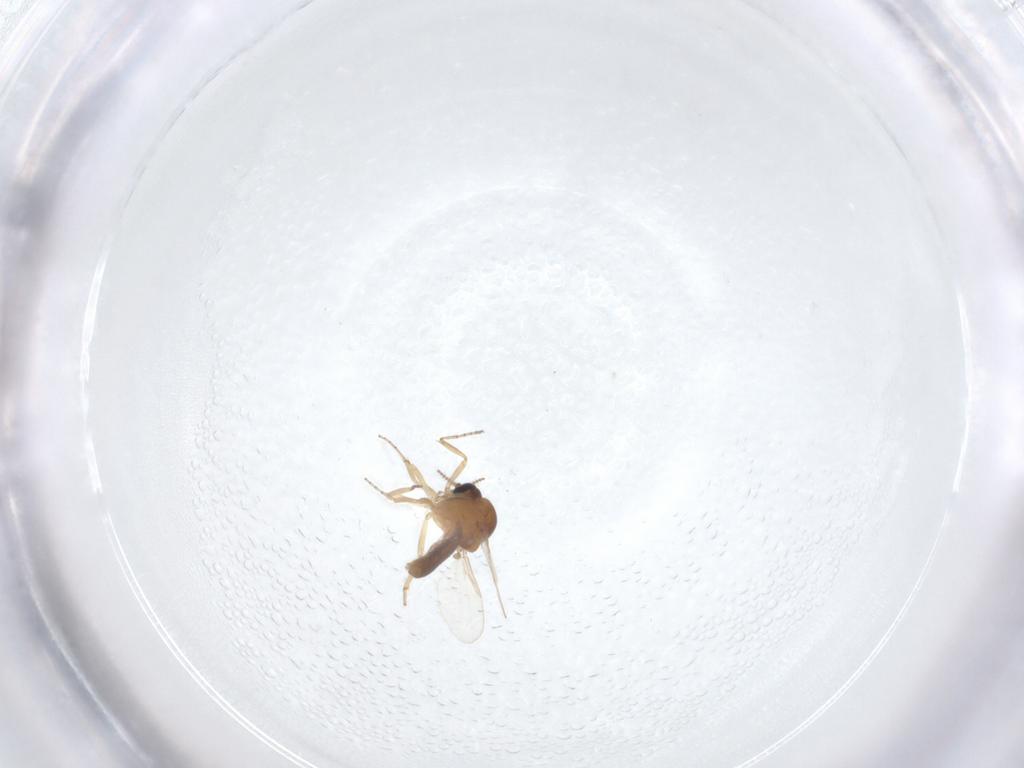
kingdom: Animalia
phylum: Arthropoda
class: Insecta
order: Diptera
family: Ceratopogonidae
